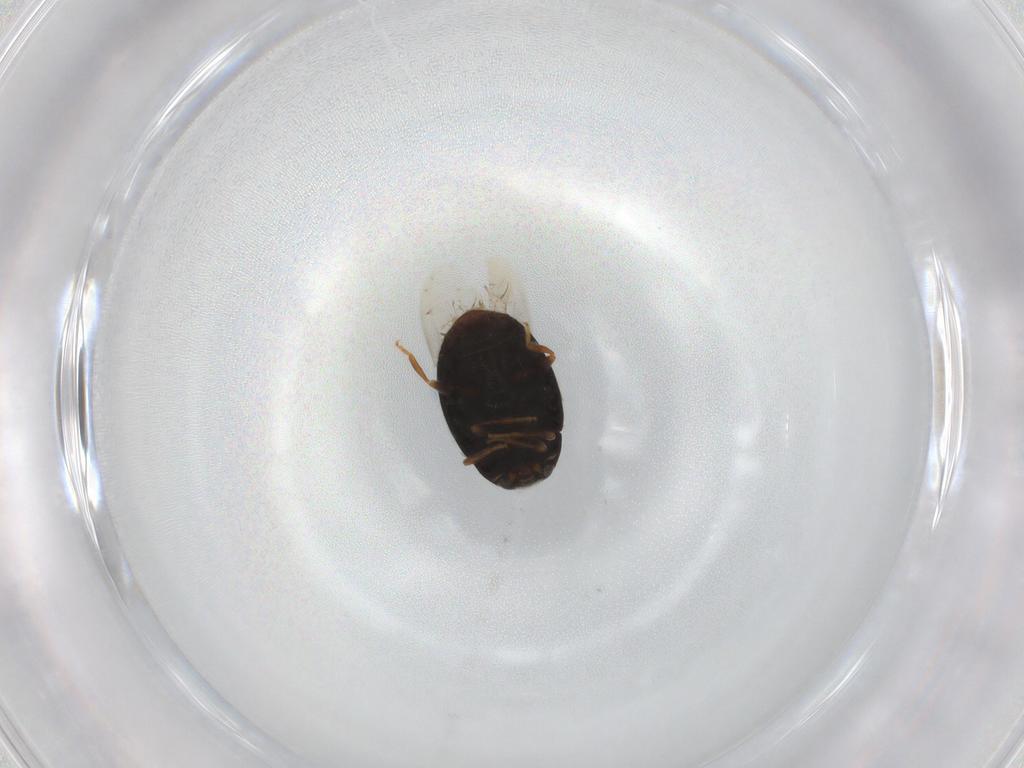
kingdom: Animalia
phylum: Arthropoda
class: Insecta
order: Coleoptera
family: Coccinellidae
